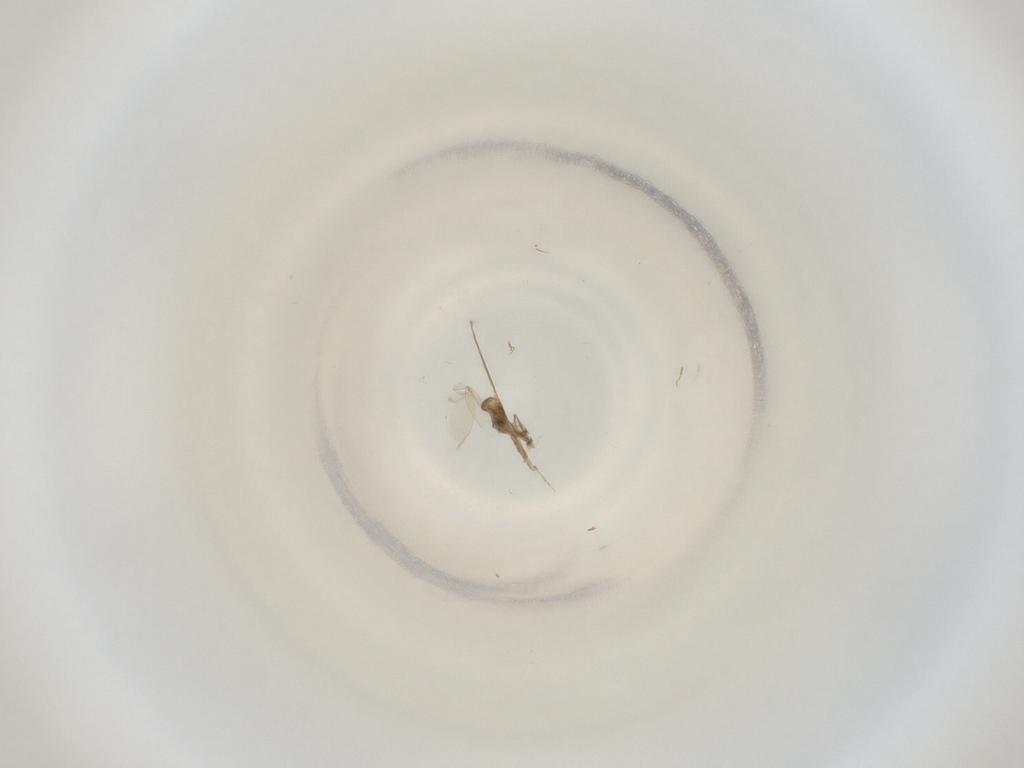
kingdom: Animalia
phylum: Arthropoda
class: Insecta
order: Diptera
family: Cecidomyiidae
